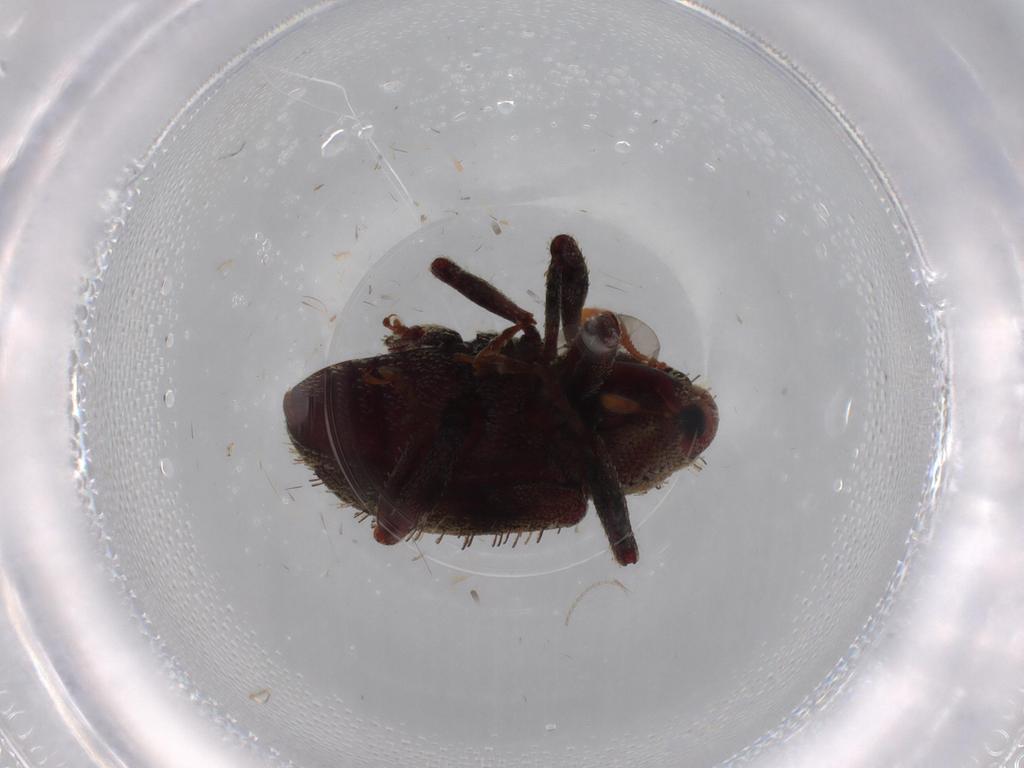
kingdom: Animalia
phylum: Arthropoda
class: Insecta
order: Coleoptera
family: Curculionidae
